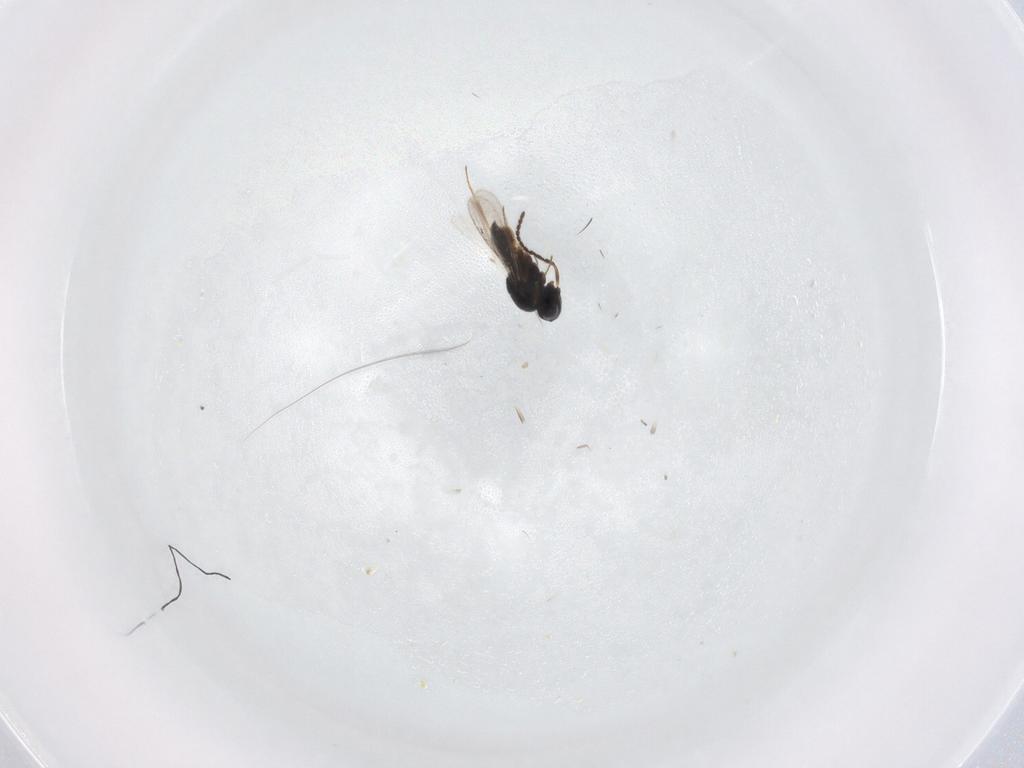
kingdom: Animalia
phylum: Arthropoda
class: Insecta
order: Hymenoptera
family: Scelionidae
